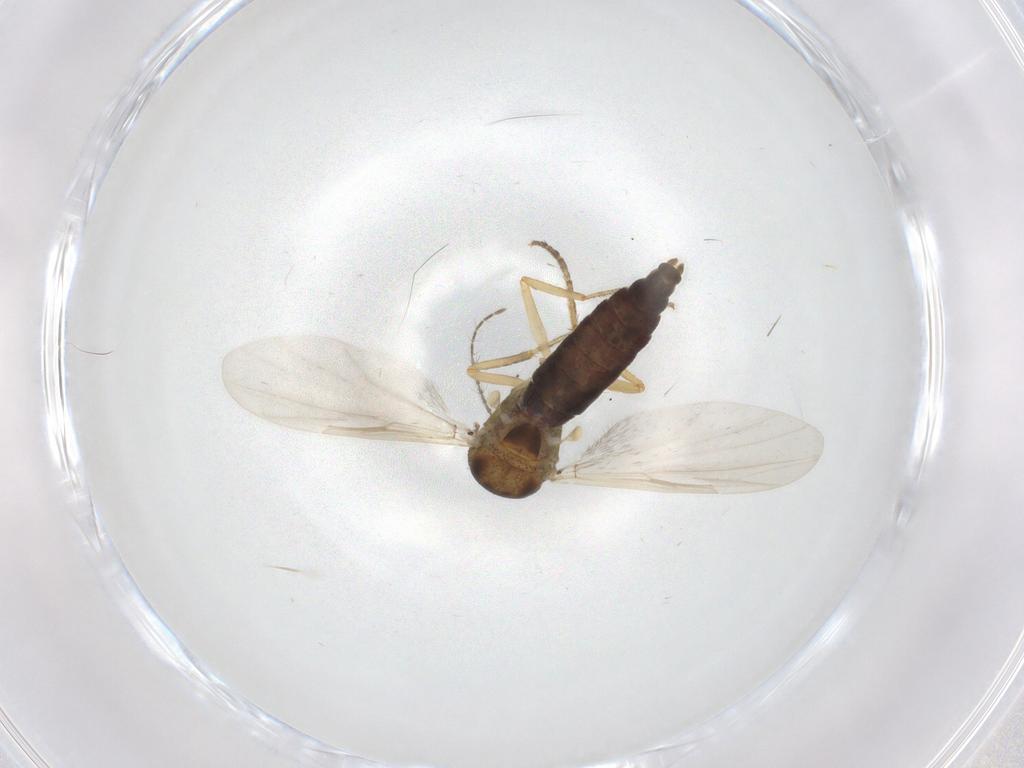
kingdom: Animalia
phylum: Arthropoda
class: Insecta
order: Diptera
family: Ceratopogonidae
